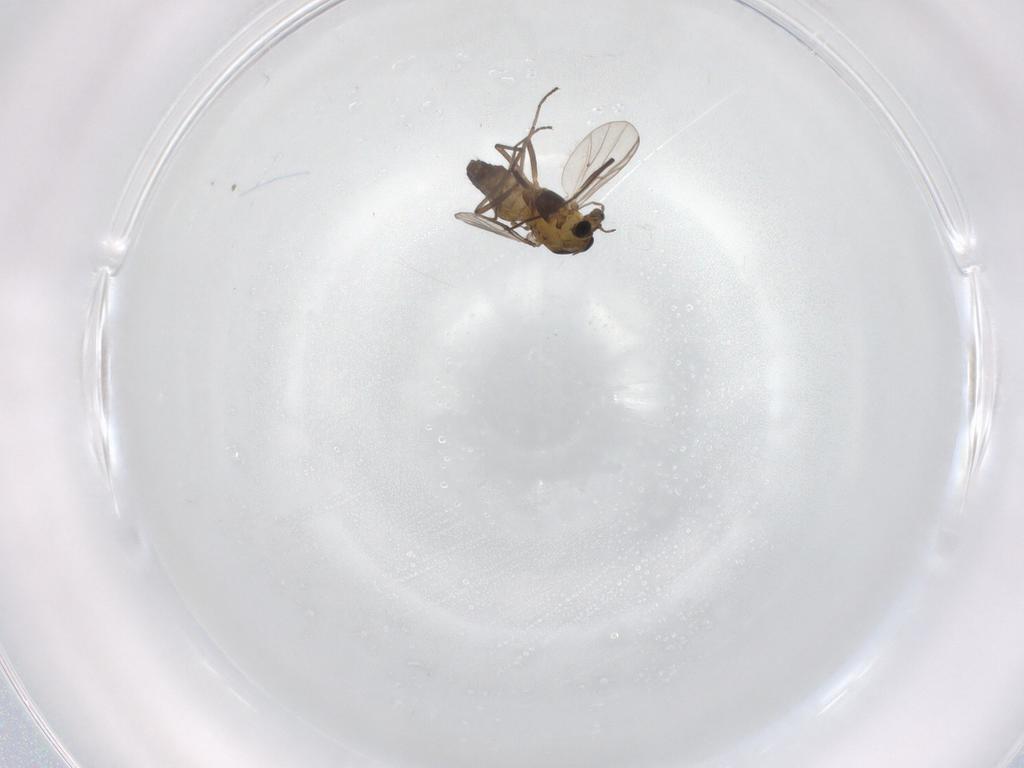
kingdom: Animalia
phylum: Arthropoda
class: Insecta
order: Diptera
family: Chironomidae
